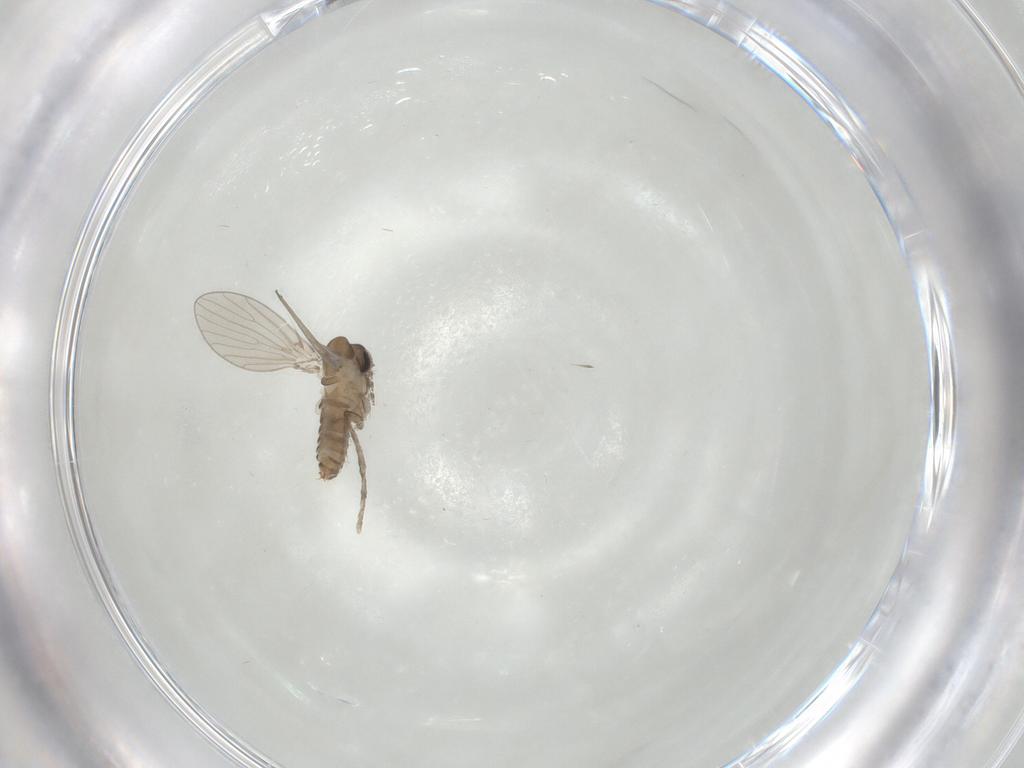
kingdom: Animalia
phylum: Arthropoda
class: Insecta
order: Diptera
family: Psychodidae
